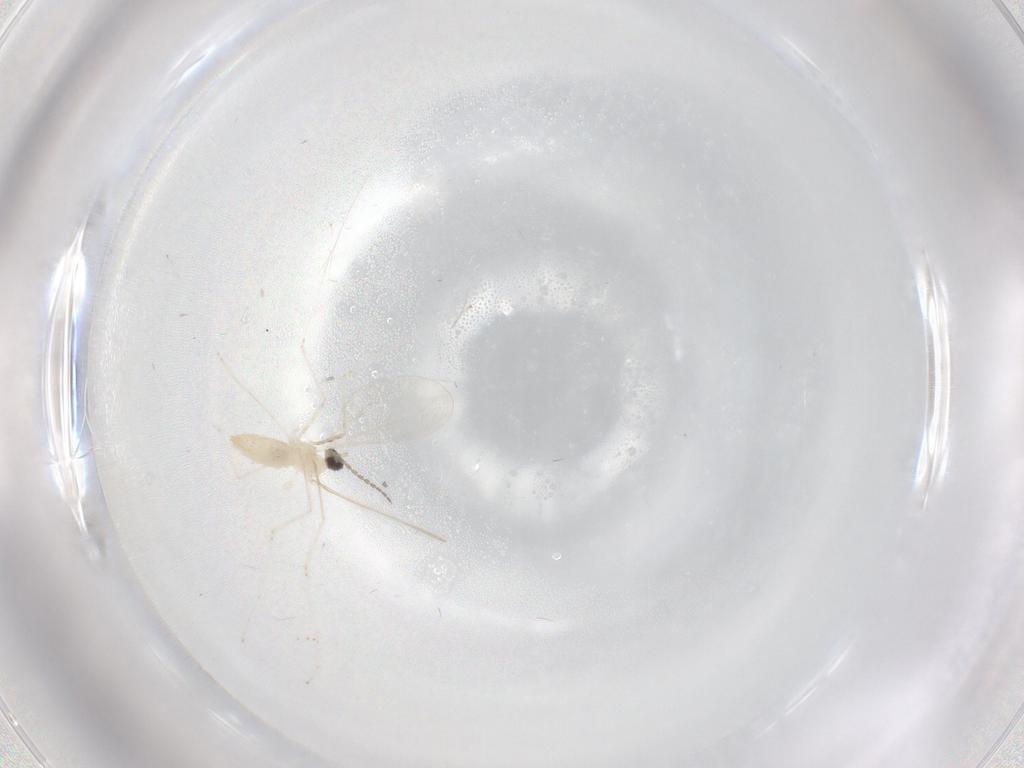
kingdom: Animalia
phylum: Arthropoda
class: Insecta
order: Diptera
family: Cecidomyiidae
